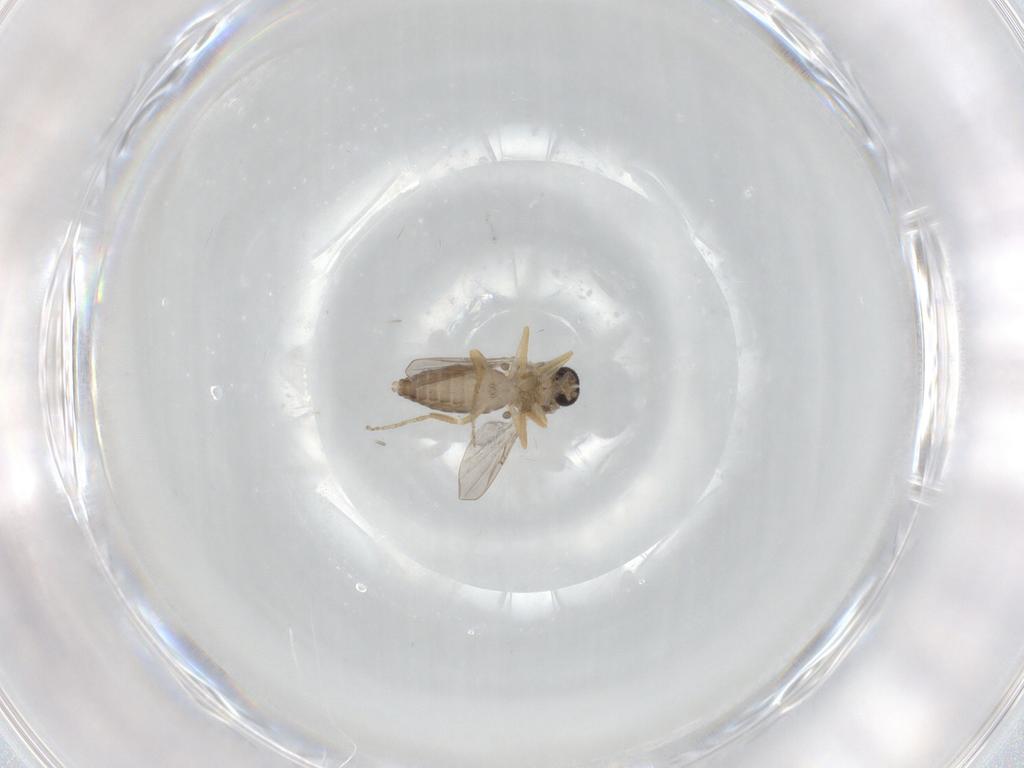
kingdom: Animalia
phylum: Arthropoda
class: Insecta
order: Diptera
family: Ceratopogonidae
